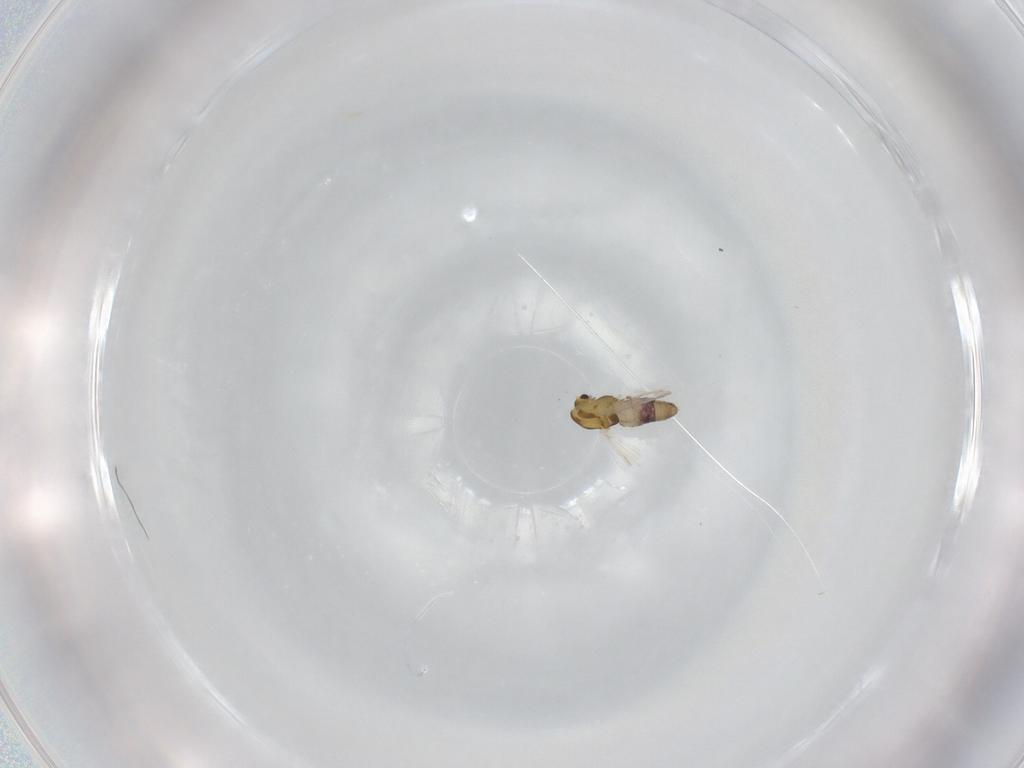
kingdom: Animalia
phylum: Arthropoda
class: Insecta
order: Diptera
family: Chironomidae
